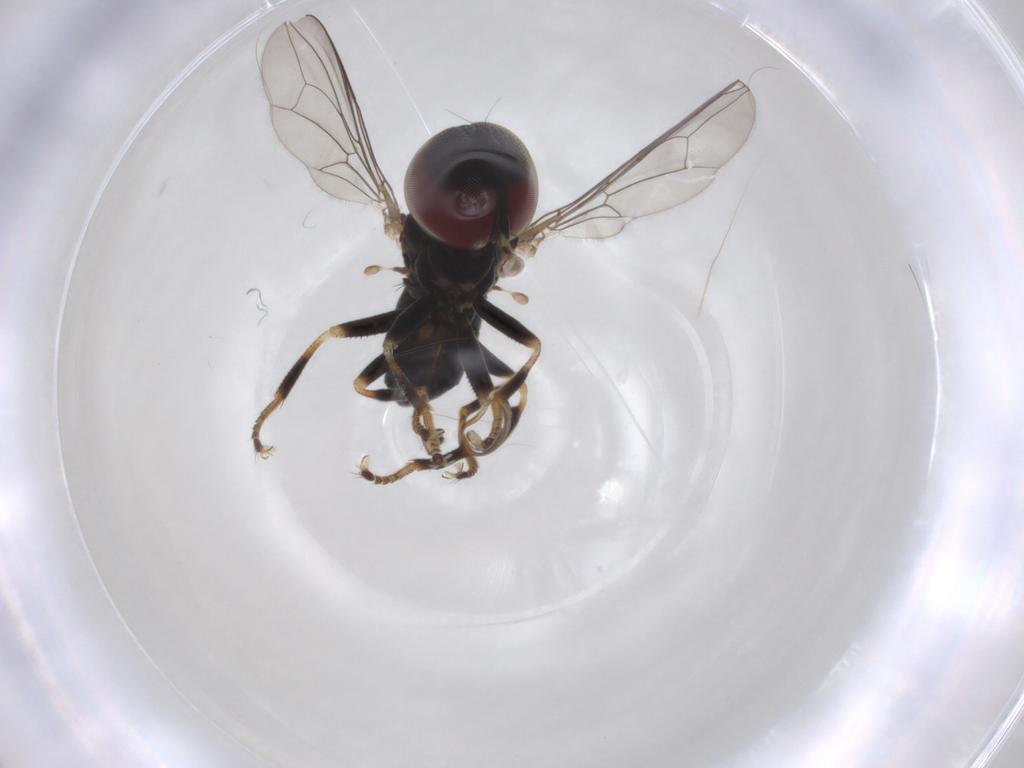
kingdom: Animalia
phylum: Arthropoda
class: Insecta
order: Diptera
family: Pipunculidae
